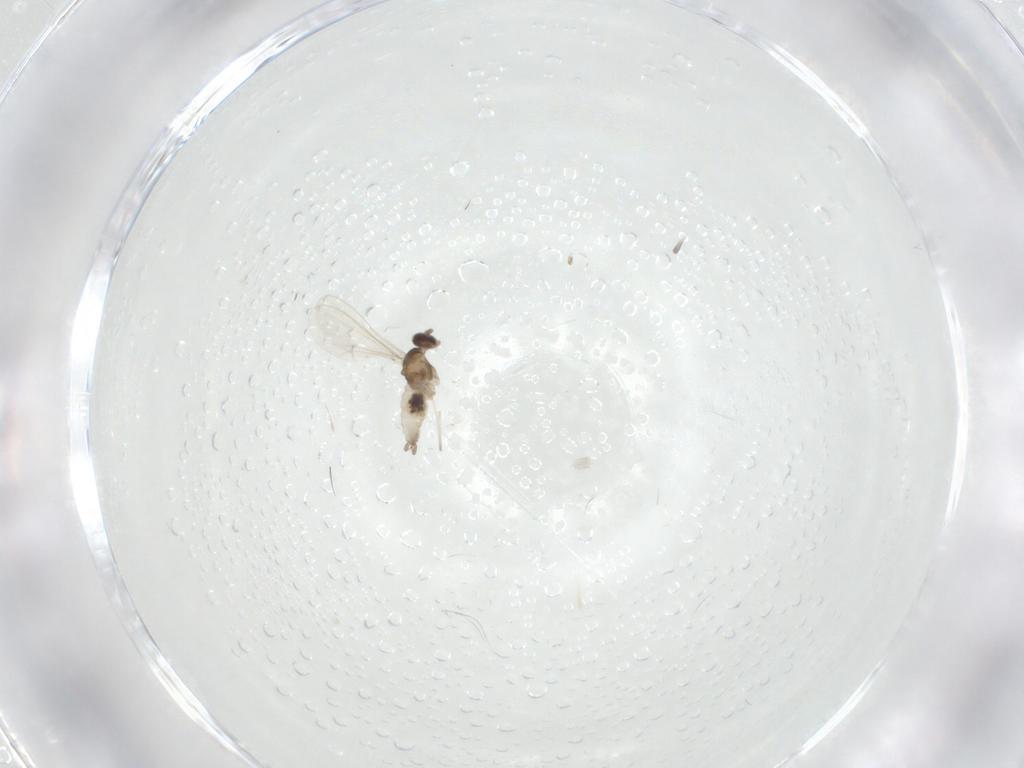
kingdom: Animalia
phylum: Arthropoda
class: Insecta
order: Diptera
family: Cecidomyiidae
